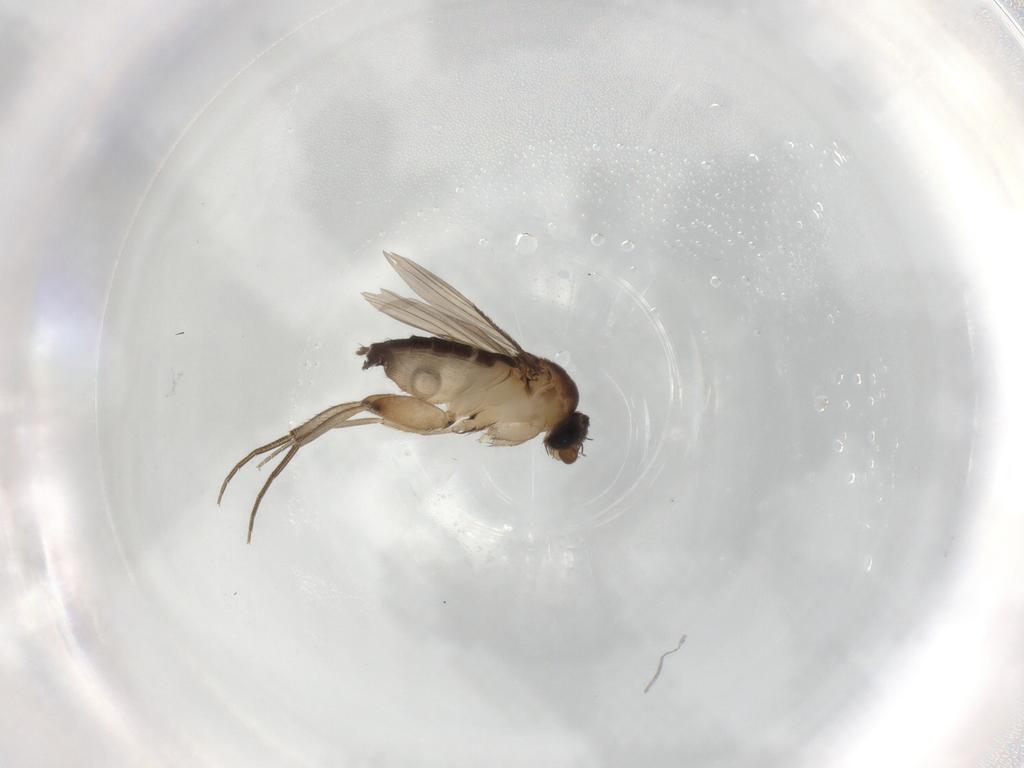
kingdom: Animalia
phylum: Arthropoda
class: Insecta
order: Diptera
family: Phoridae
